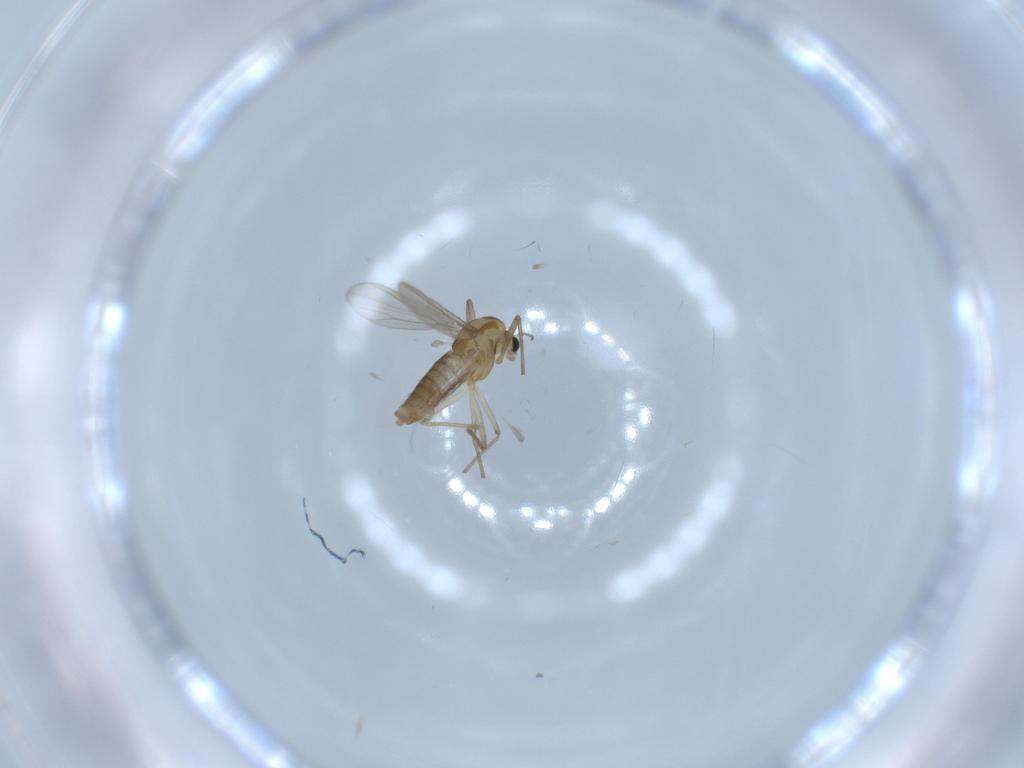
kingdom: Animalia
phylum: Arthropoda
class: Insecta
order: Diptera
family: Chironomidae
